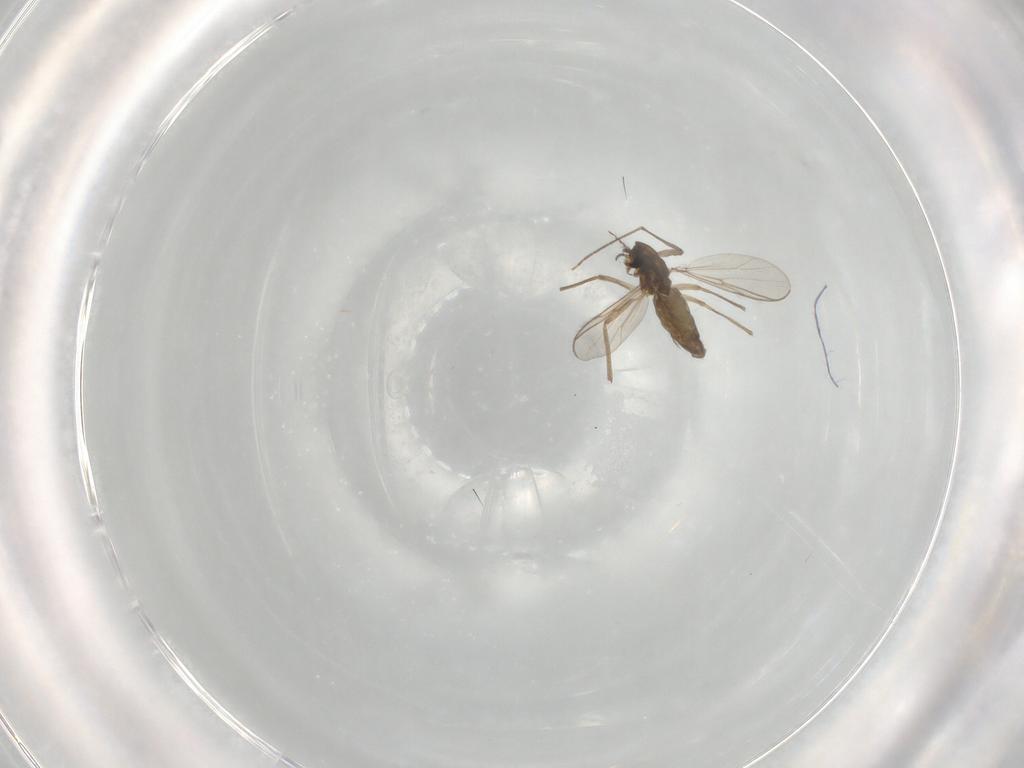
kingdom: Animalia
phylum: Arthropoda
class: Insecta
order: Diptera
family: Chironomidae
